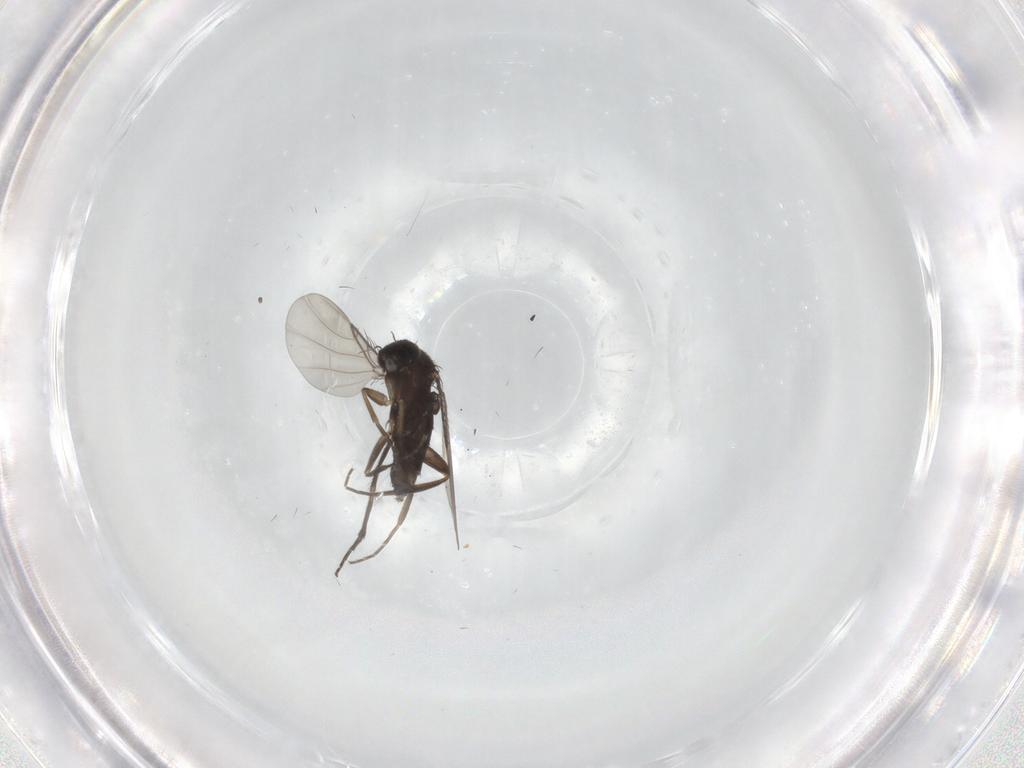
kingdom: Animalia
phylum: Arthropoda
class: Insecta
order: Diptera
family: Phoridae
